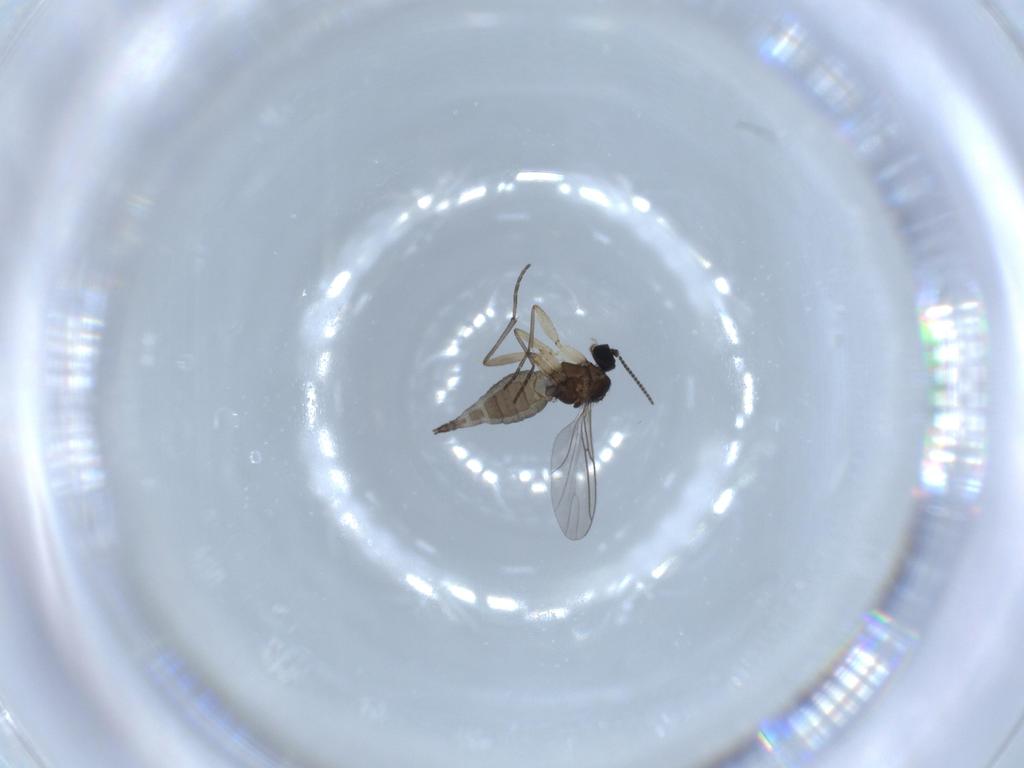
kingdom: Animalia
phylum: Arthropoda
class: Insecta
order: Diptera
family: Sciaridae
